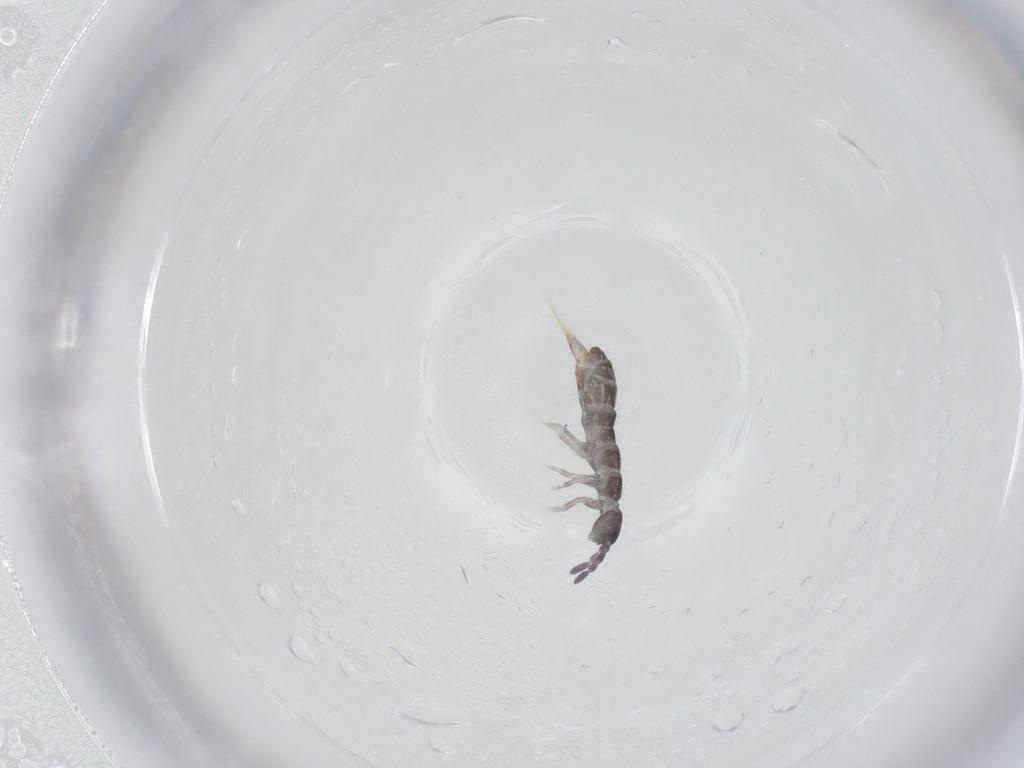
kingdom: Animalia
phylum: Arthropoda
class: Collembola
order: Entomobryomorpha
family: Isotomidae
